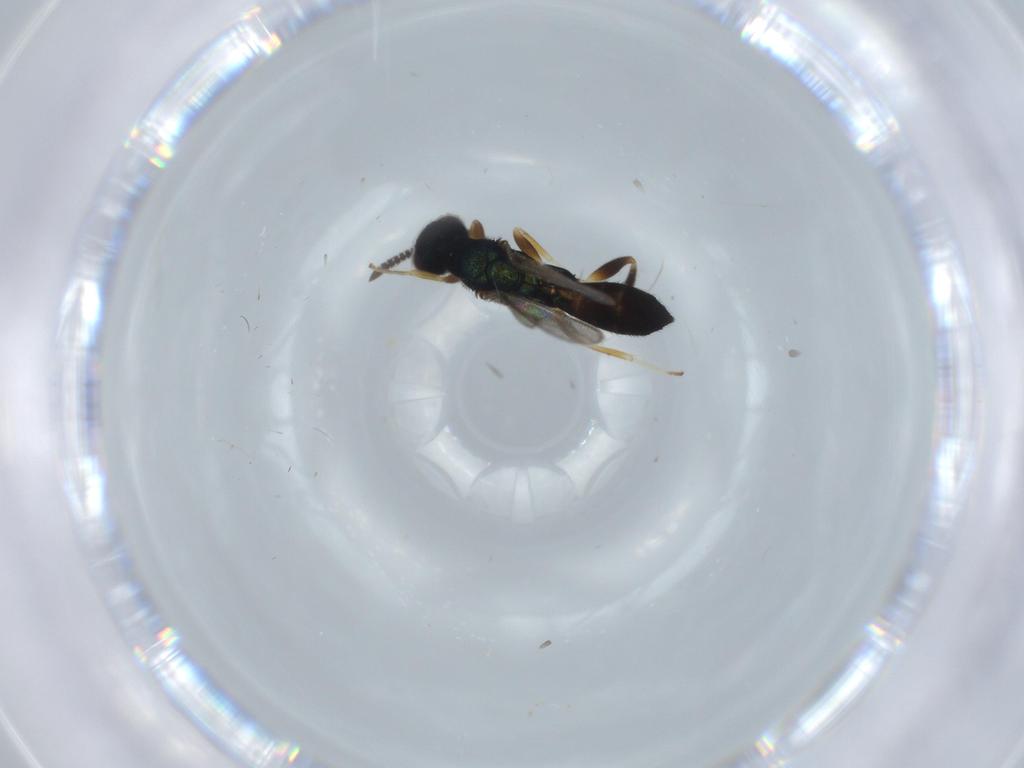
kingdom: Animalia
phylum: Arthropoda
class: Insecta
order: Hymenoptera
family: Cleonyminae
